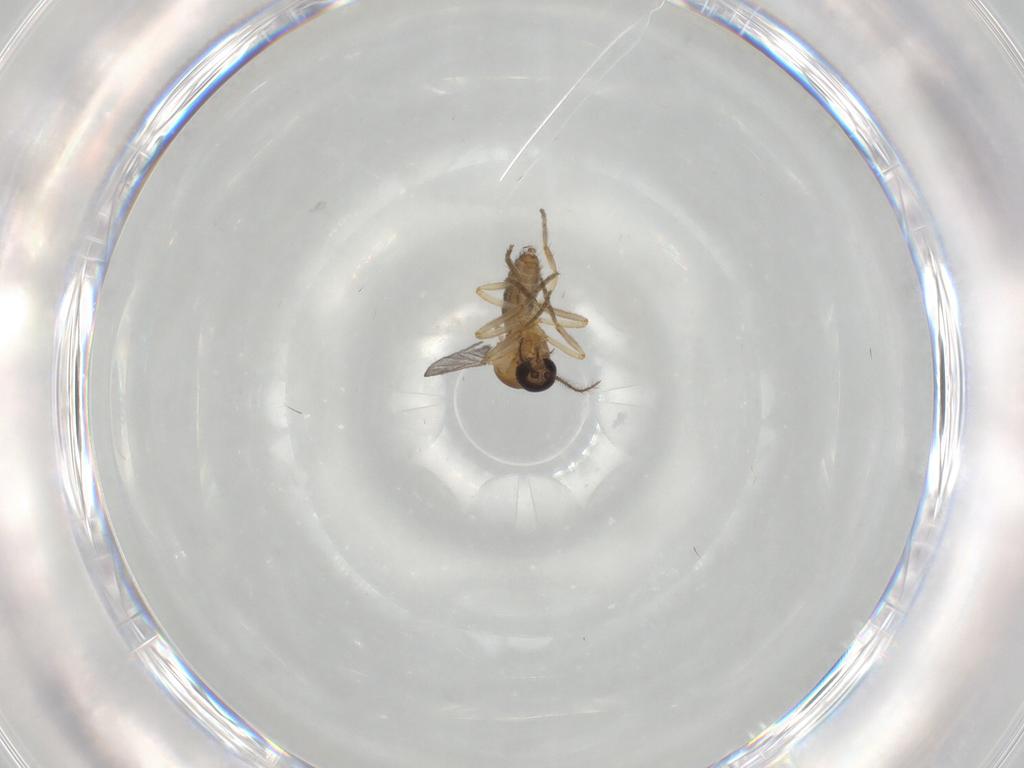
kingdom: Animalia
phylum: Arthropoda
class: Insecta
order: Diptera
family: Ceratopogonidae
